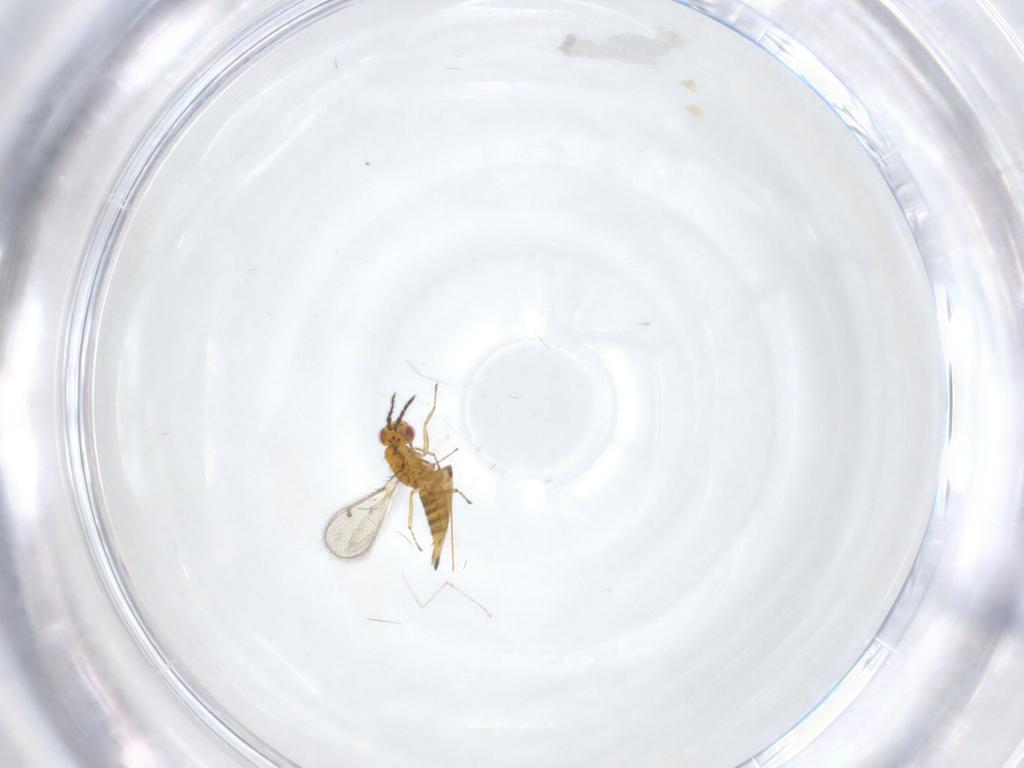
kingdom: Animalia
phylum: Arthropoda
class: Insecta
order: Hymenoptera
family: Eulophidae
